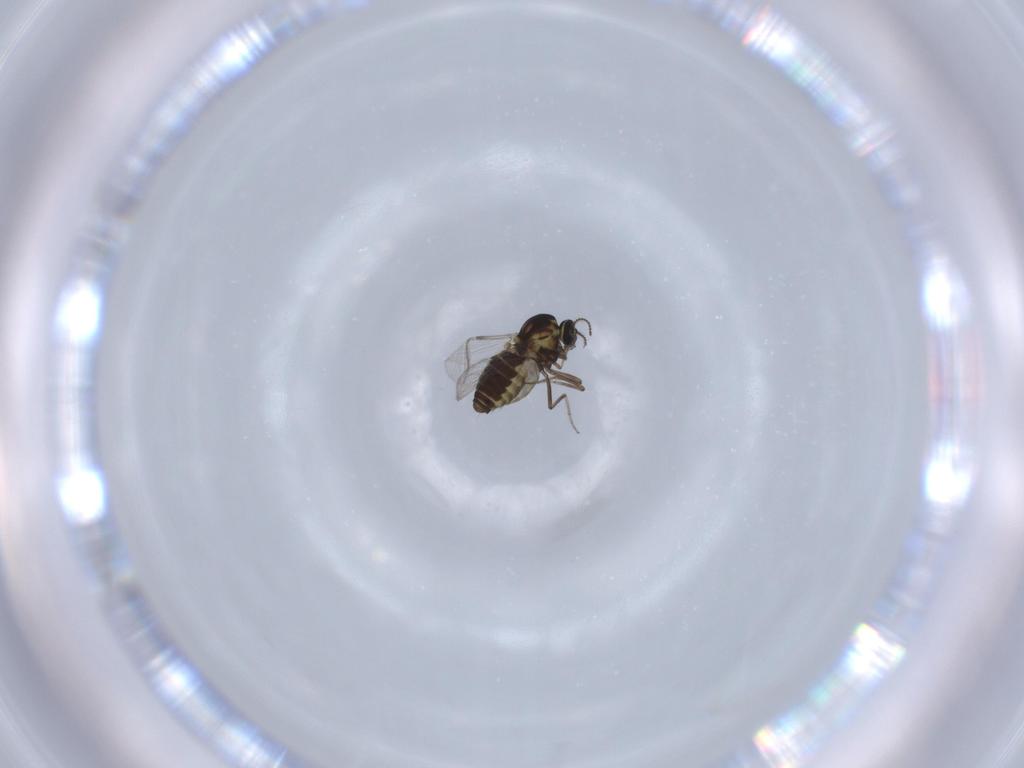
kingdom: Animalia
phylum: Arthropoda
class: Insecta
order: Diptera
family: Ceratopogonidae
